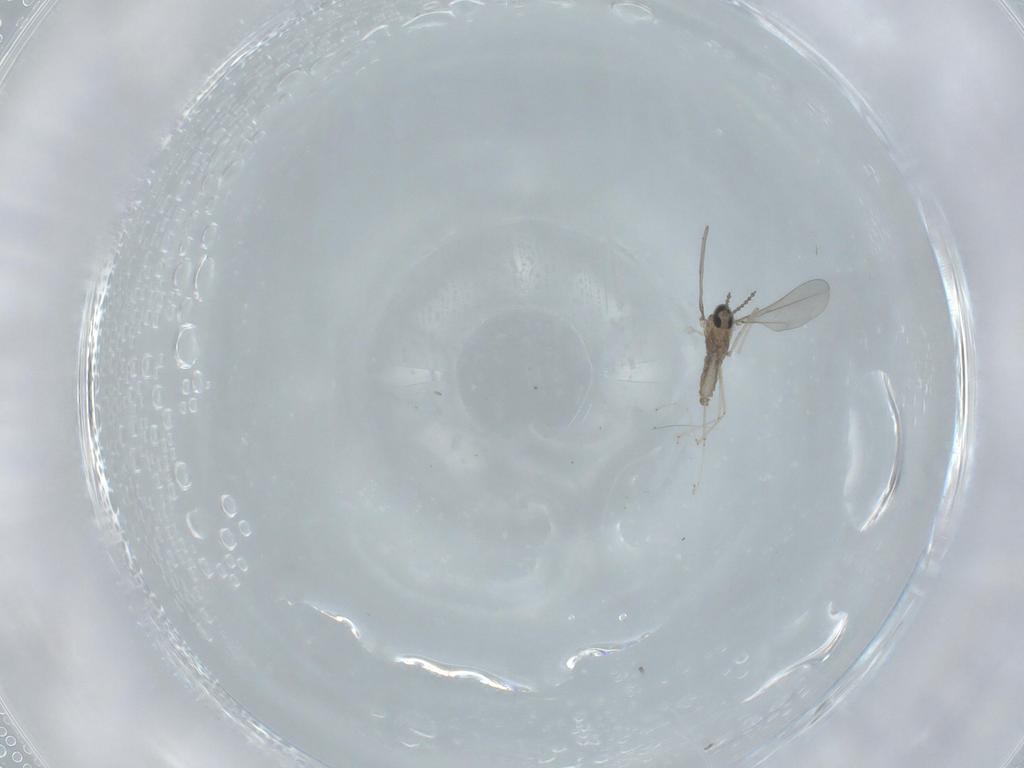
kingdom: Animalia
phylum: Arthropoda
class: Insecta
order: Diptera
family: Cecidomyiidae
